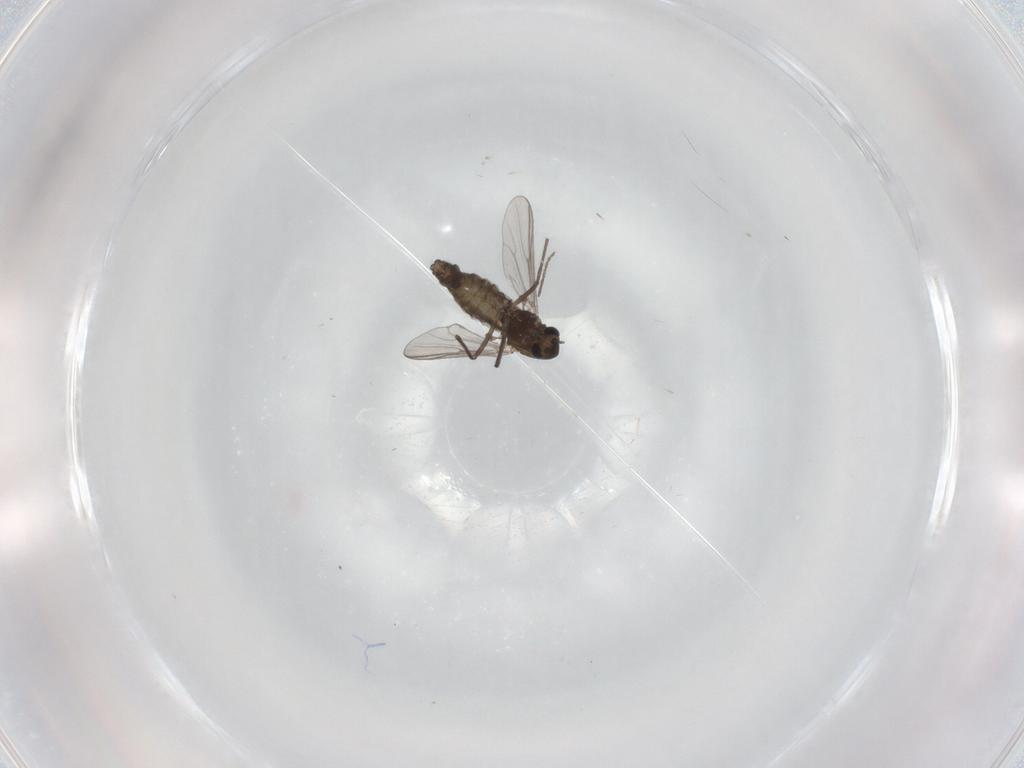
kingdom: Animalia
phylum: Arthropoda
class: Insecta
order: Diptera
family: Chironomidae
